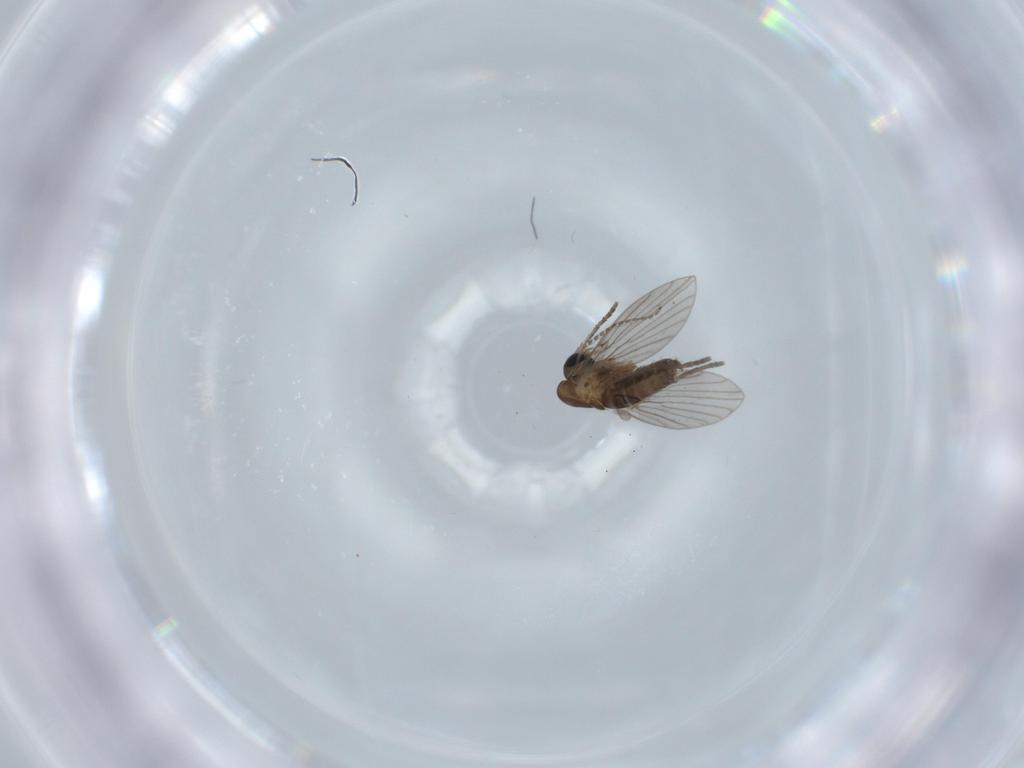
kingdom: Animalia
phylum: Arthropoda
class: Insecta
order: Diptera
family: Cecidomyiidae
